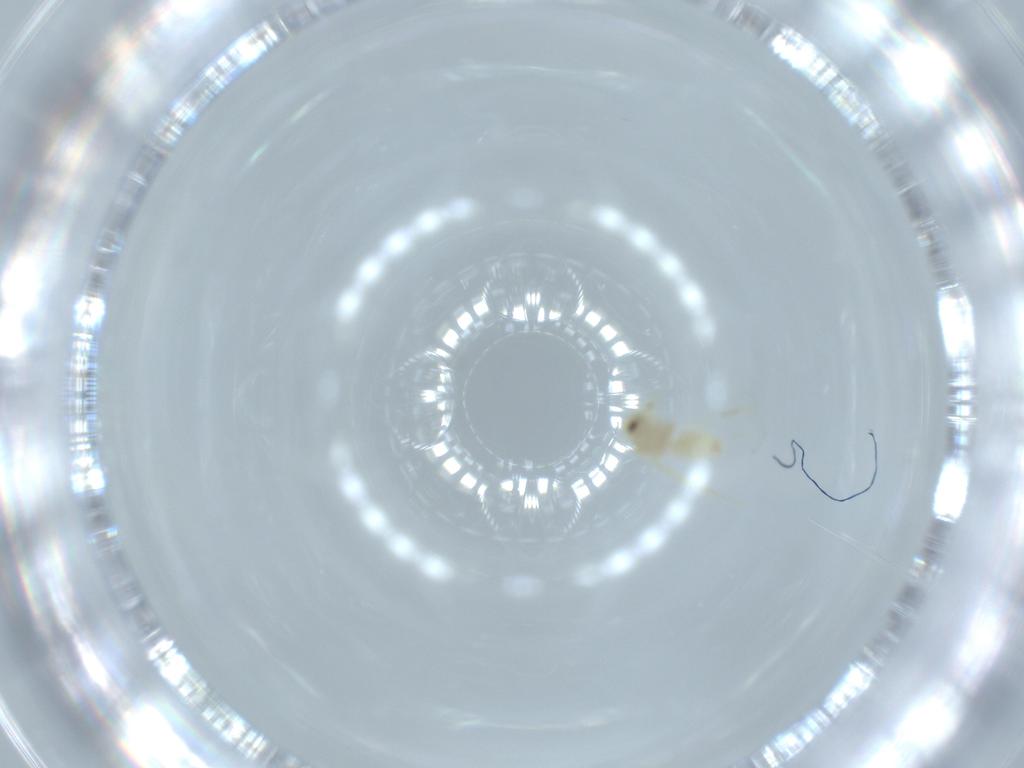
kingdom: Animalia
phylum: Arthropoda
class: Insecta
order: Hemiptera
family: Aleyrodidae
